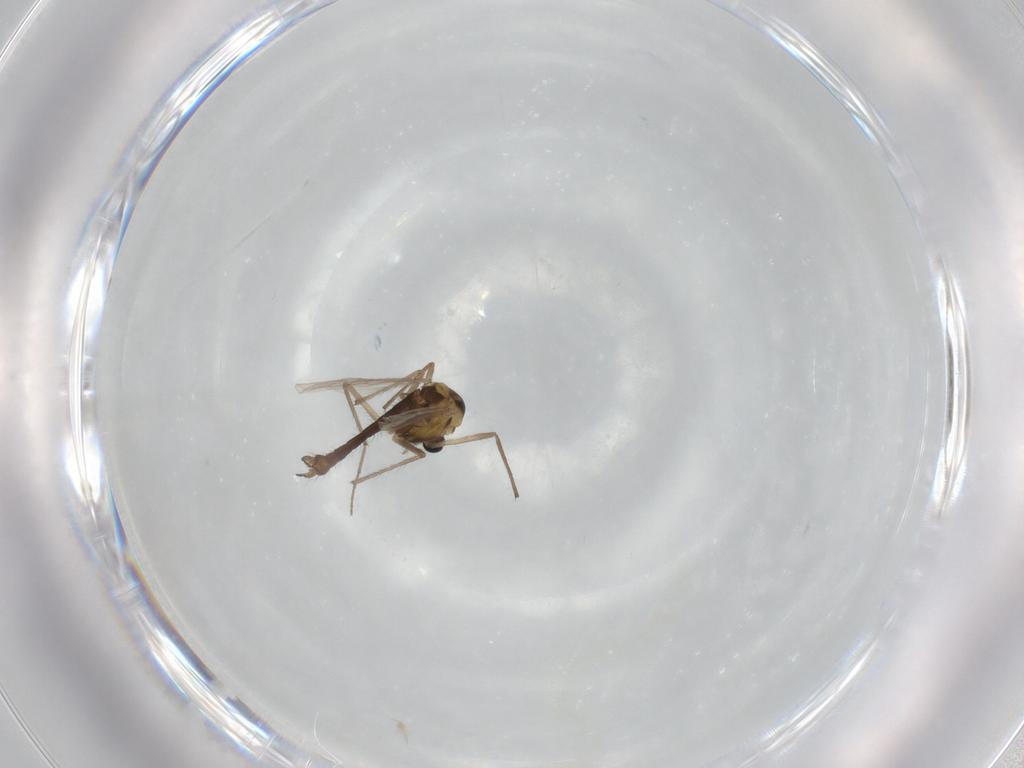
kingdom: Animalia
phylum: Arthropoda
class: Insecta
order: Diptera
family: Chironomidae
